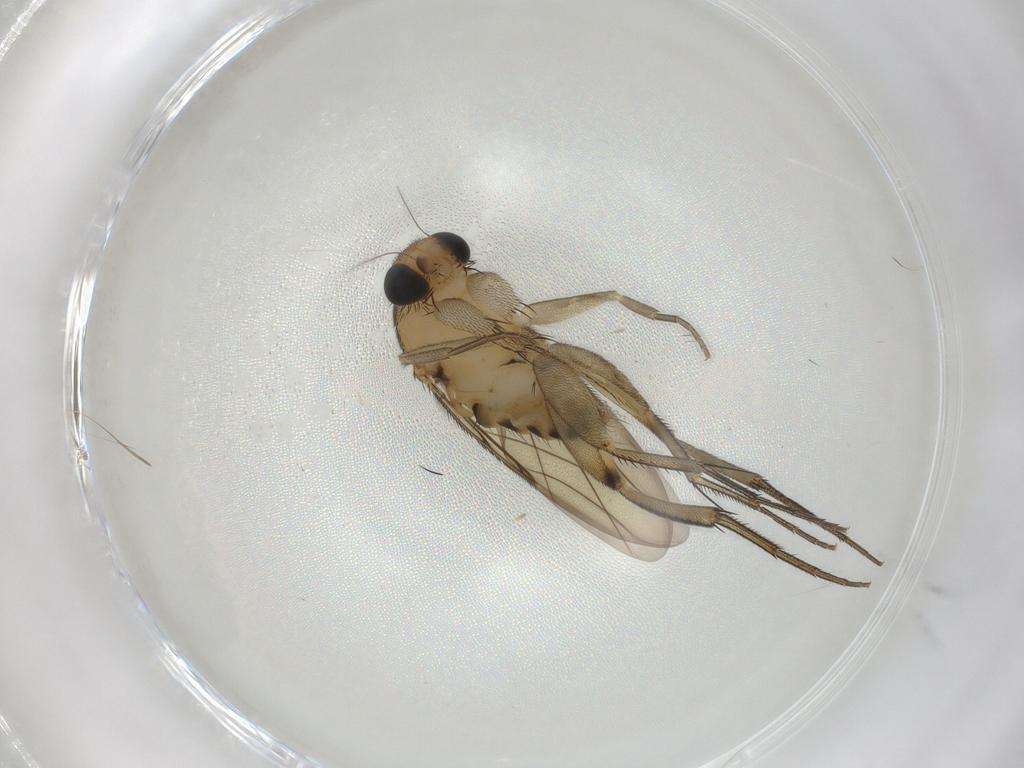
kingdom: Animalia
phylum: Arthropoda
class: Insecta
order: Diptera
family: Phoridae
